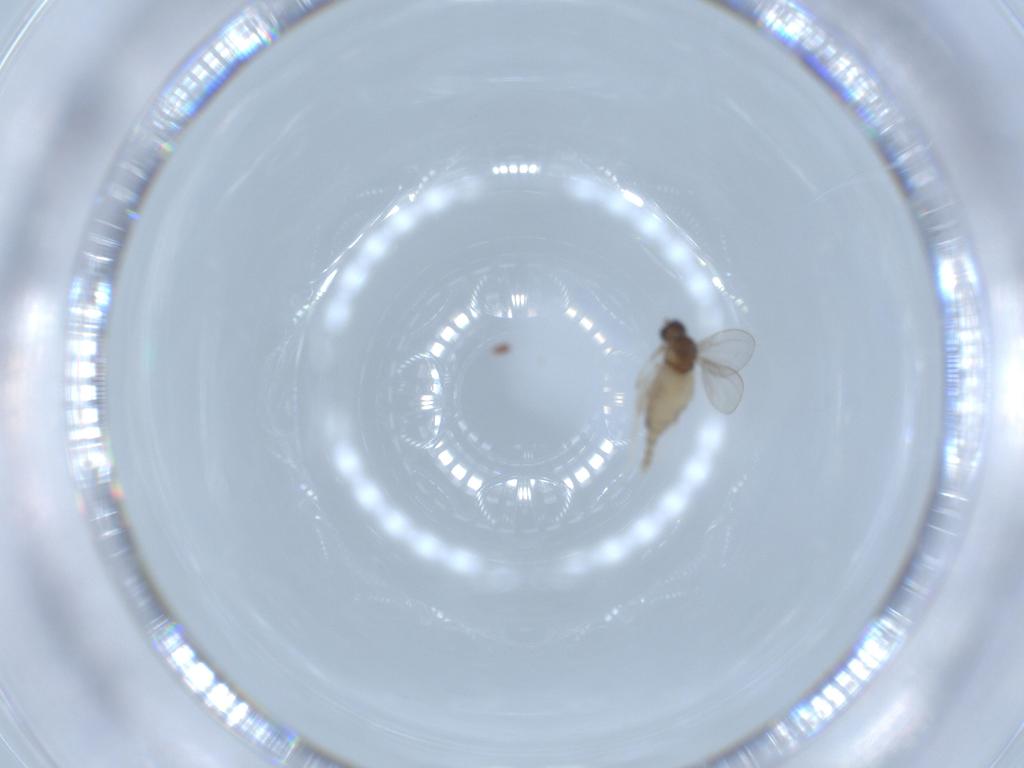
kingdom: Animalia
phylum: Arthropoda
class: Insecta
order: Diptera
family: Cecidomyiidae
